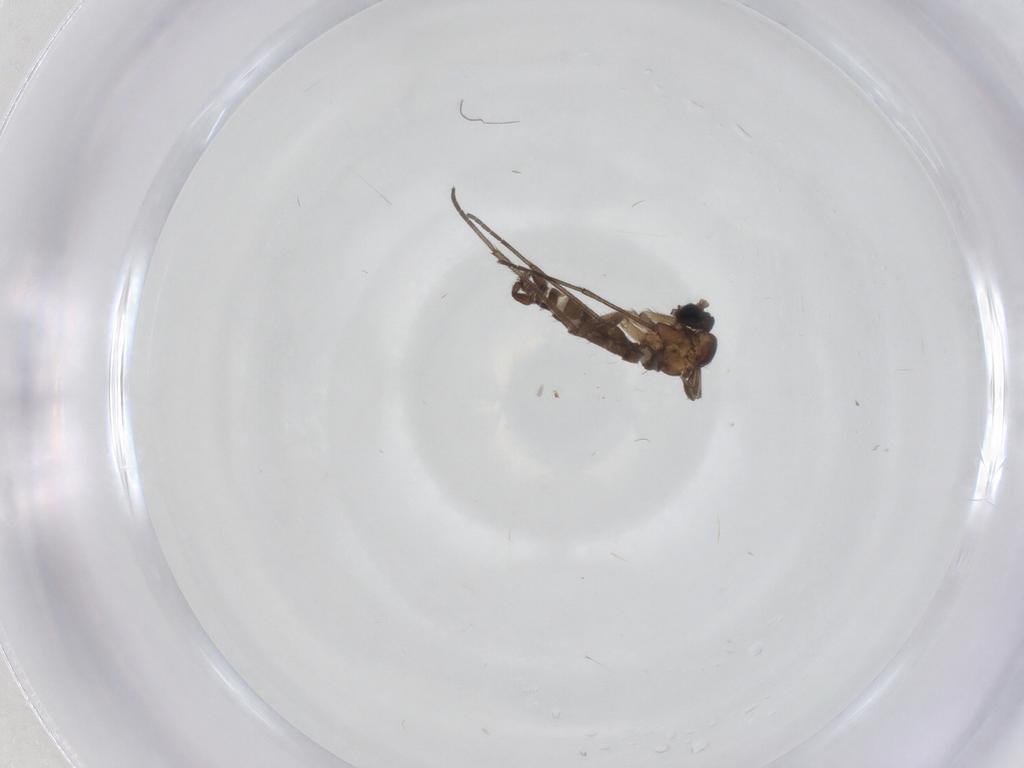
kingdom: Animalia
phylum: Arthropoda
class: Insecta
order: Diptera
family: Sciaridae
